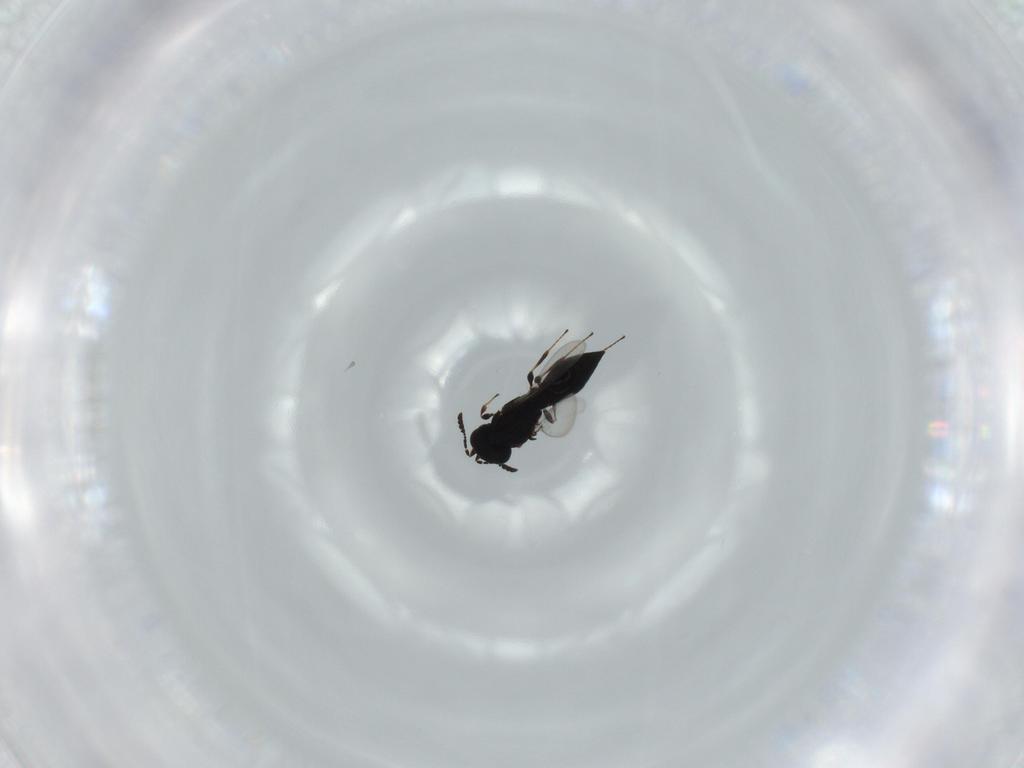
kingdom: Animalia
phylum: Arthropoda
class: Insecta
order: Hymenoptera
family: Platygastridae
